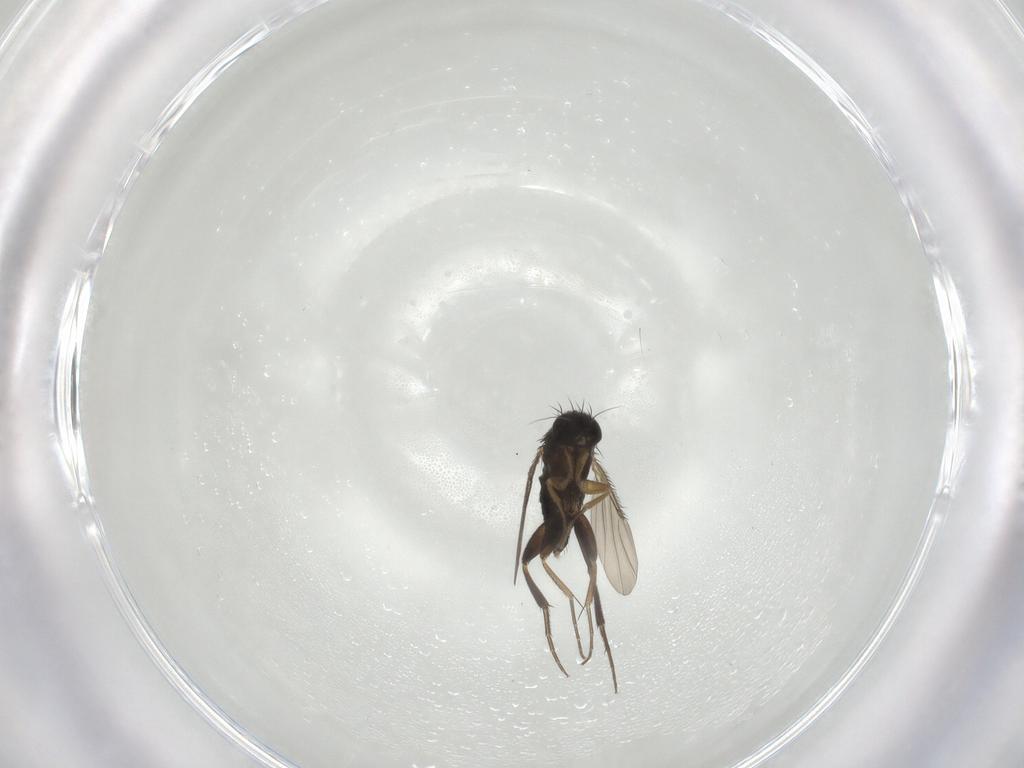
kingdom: Animalia
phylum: Arthropoda
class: Insecta
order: Diptera
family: Phoridae
